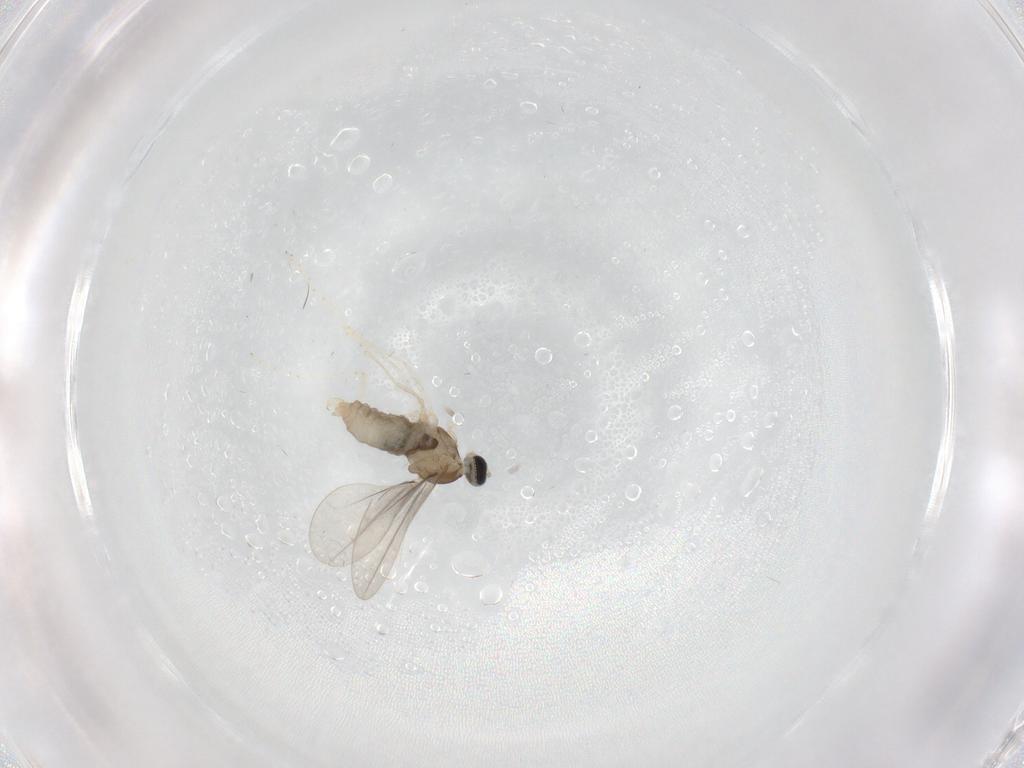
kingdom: Animalia
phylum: Arthropoda
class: Insecta
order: Diptera
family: Cecidomyiidae
